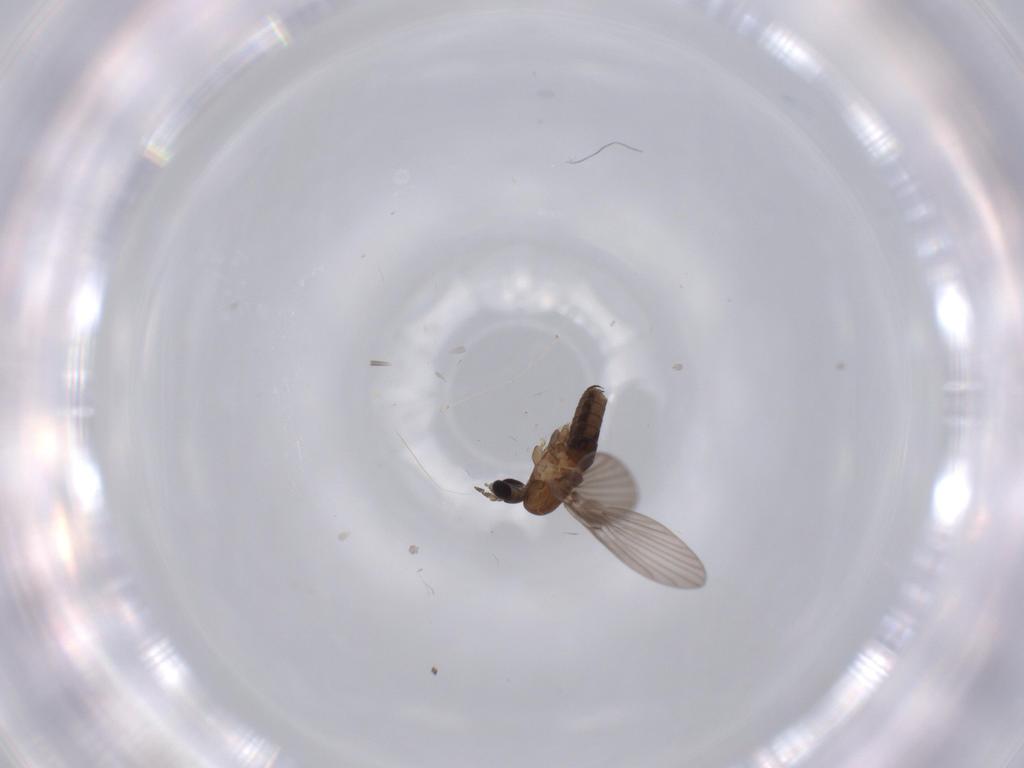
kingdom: Animalia
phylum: Arthropoda
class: Insecta
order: Diptera
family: Psychodidae
